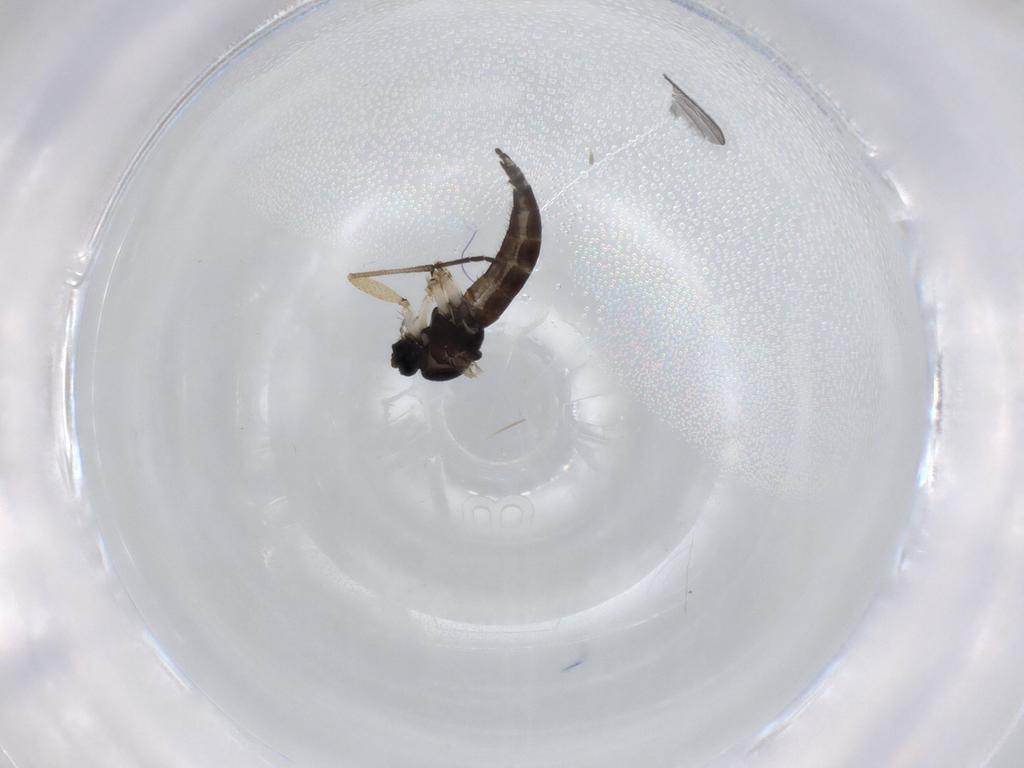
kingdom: Animalia
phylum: Arthropoda
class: Insecta
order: Diptera
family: Sciaridae
